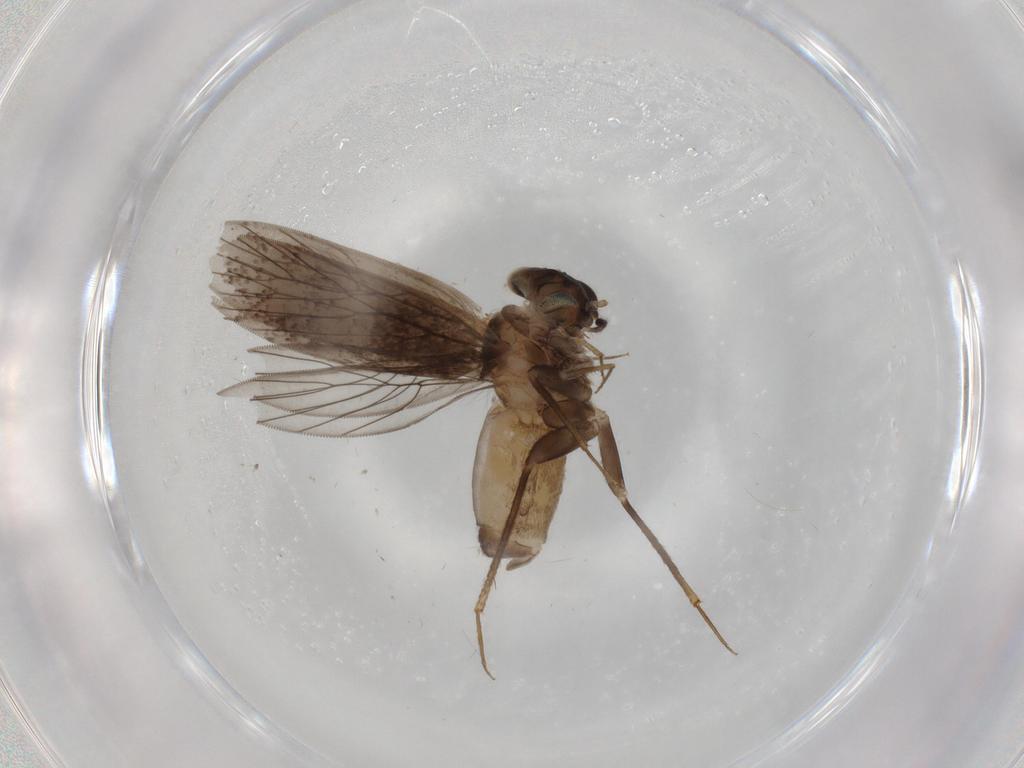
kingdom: Animalia
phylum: Arthropoda
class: Insecta
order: Psocodea
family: Lepidopsocidae
